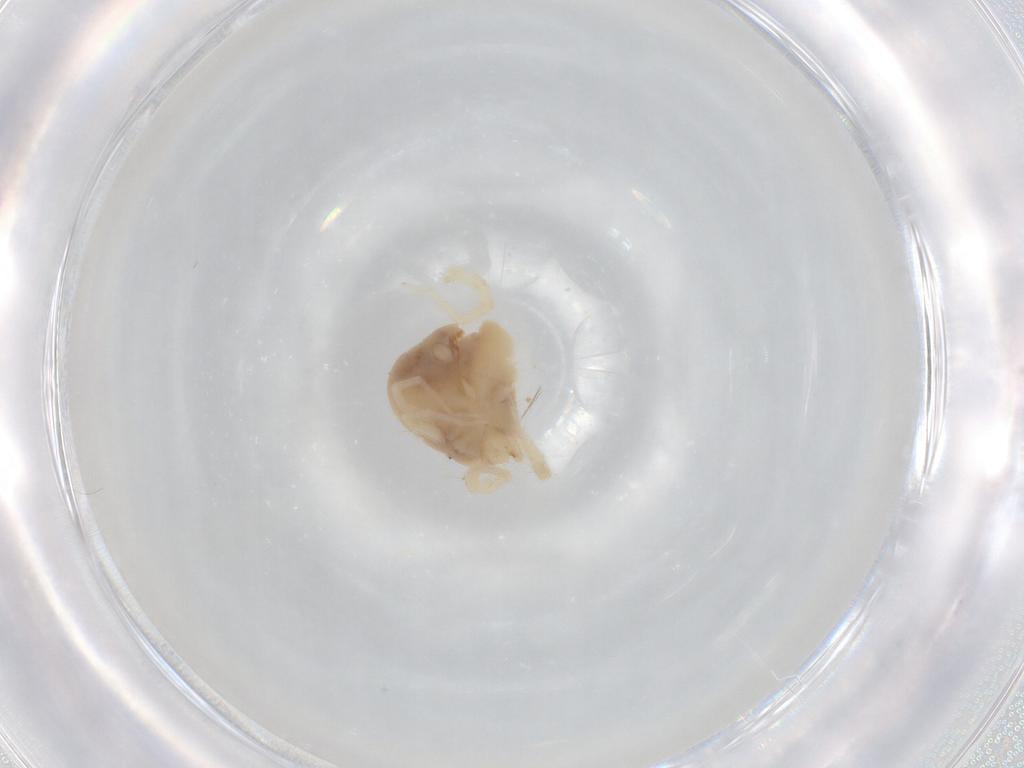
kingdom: Animalia
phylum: Arthropoda
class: Arachnida
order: Trombidiformes
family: Anystidae
